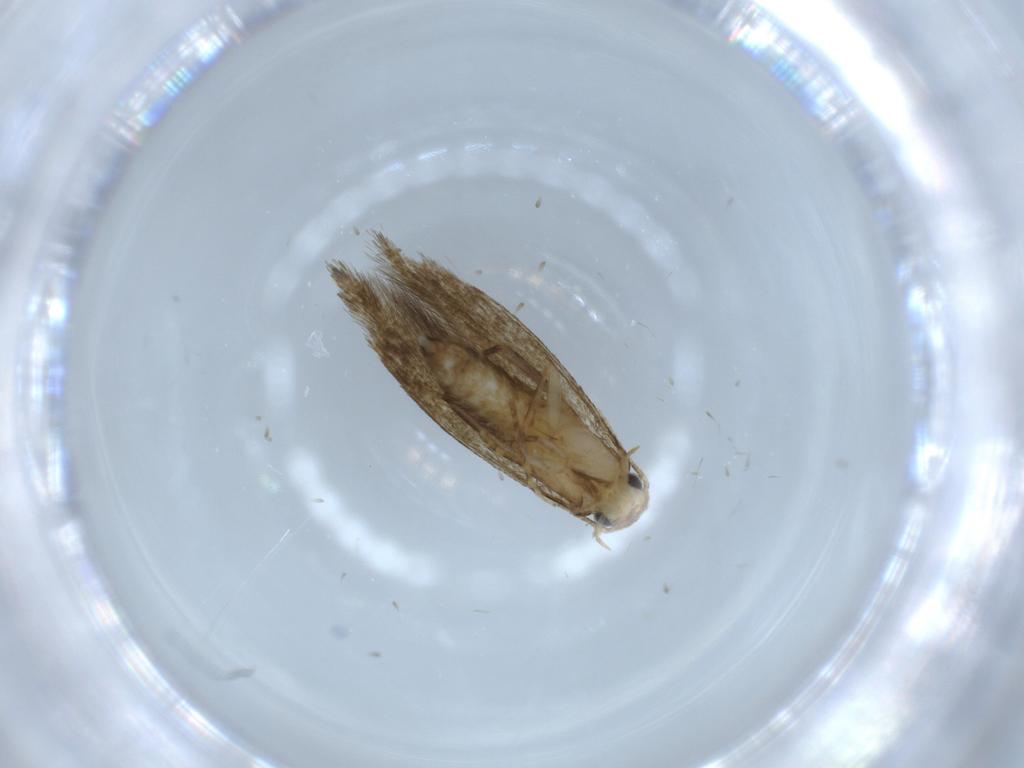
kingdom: Animalia
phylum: Arthropoda
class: Insecta
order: Lepidoptera
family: Tineidae
